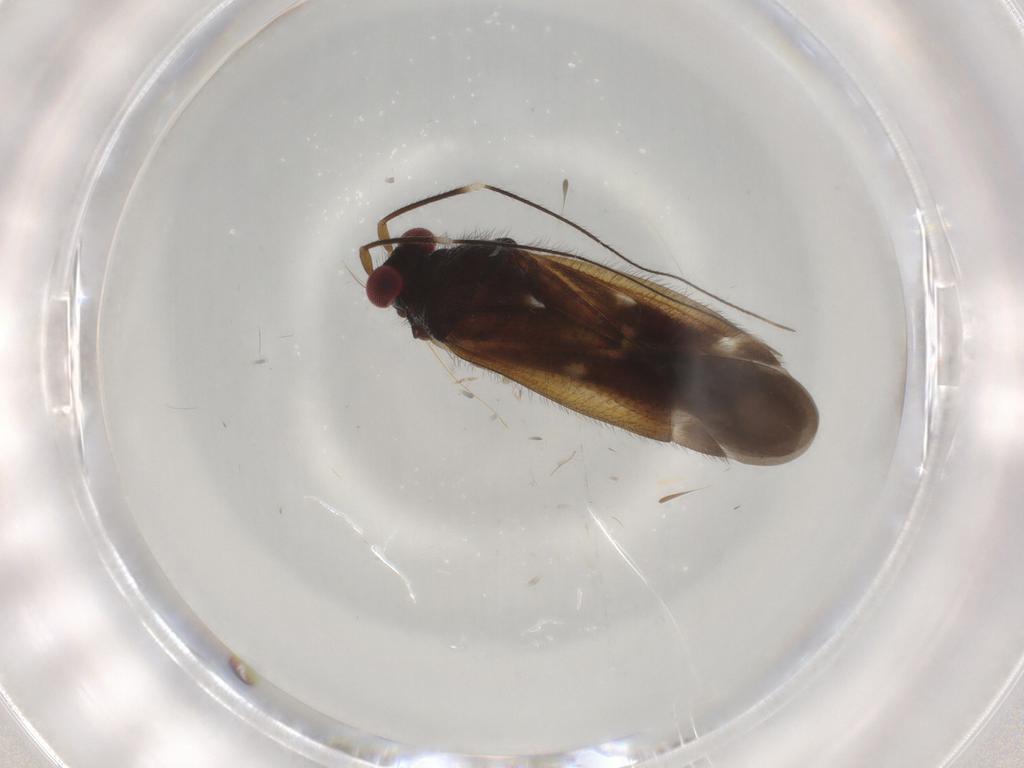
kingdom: Animalia
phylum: Arthropoda
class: Insecta
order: Hemiptera
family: Miridae
